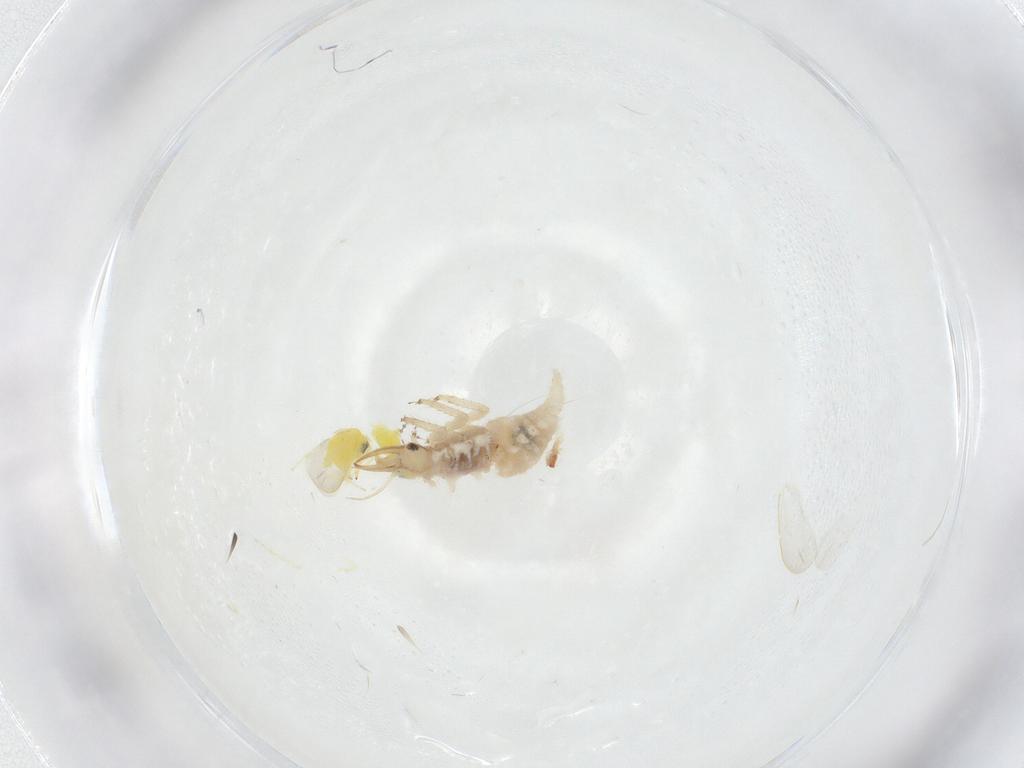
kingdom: Animalia
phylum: Arthropoda
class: Insecta
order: Neuroptera
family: Chrysopidae
